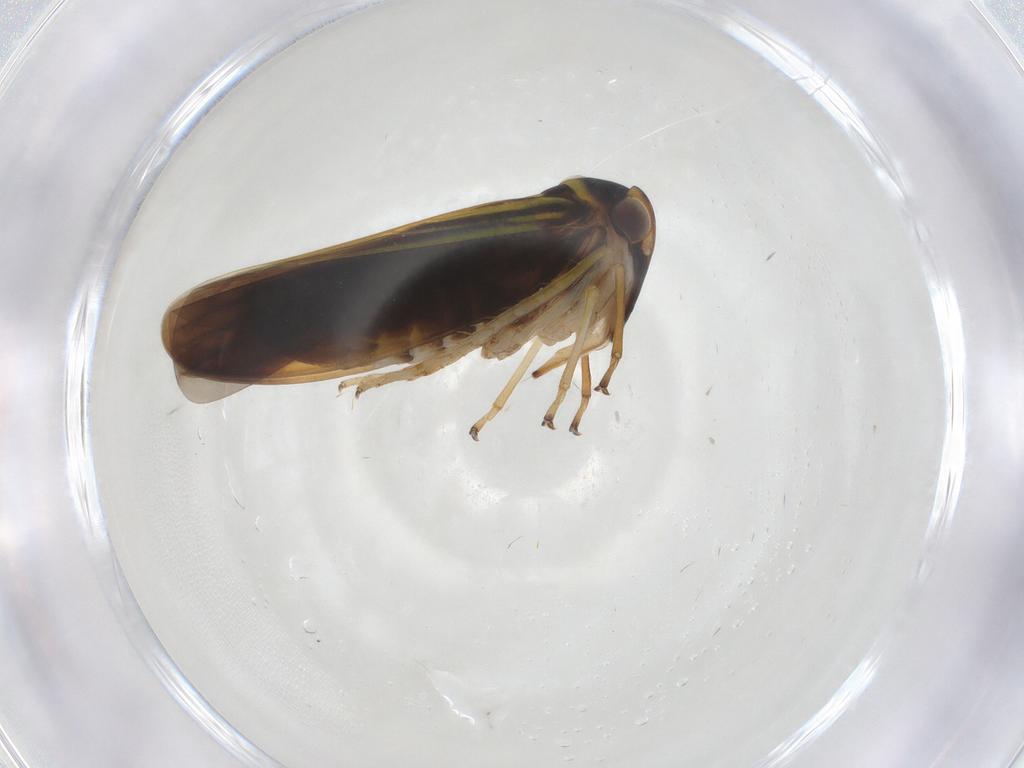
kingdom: Animalia
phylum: Arthropoda
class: Insecta
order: Hemiptera
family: Cicadellidae
